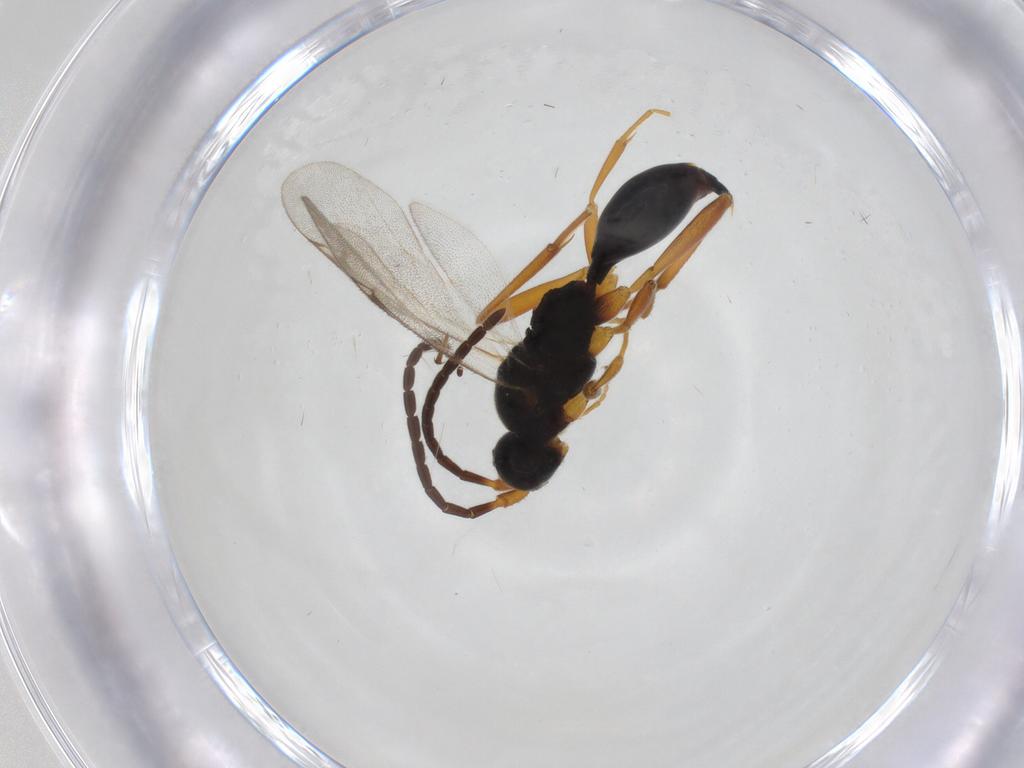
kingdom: Animalia
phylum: Arthropoda
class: Insecta
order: Hymenoptera
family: Proctotrupidae
